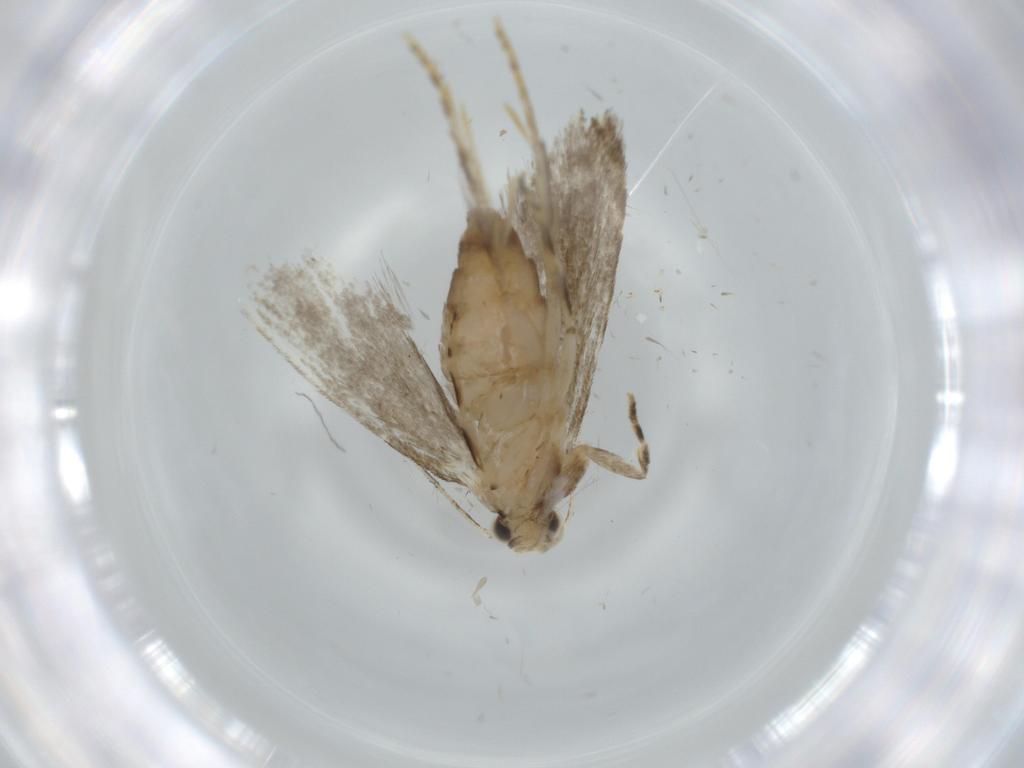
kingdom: Animalia
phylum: Arthropoda
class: Insecta
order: Lepidoptera
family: Tineidae
